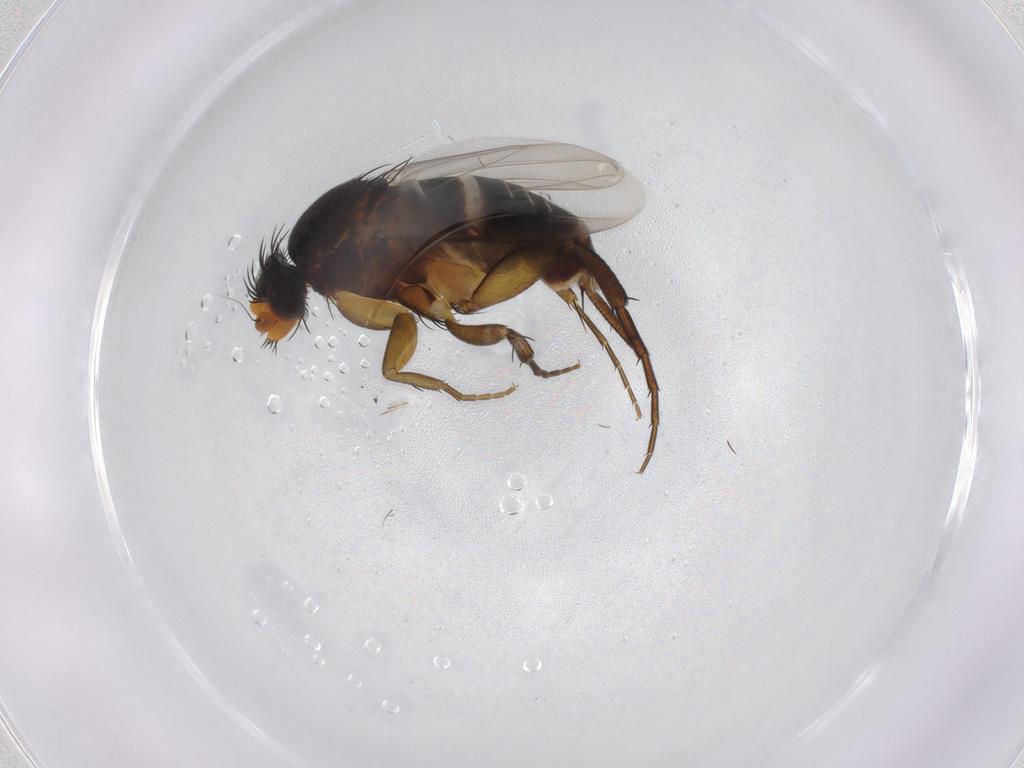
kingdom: Animalia
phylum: Arthropoda
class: Insecta
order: Diptera
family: Phoridae
